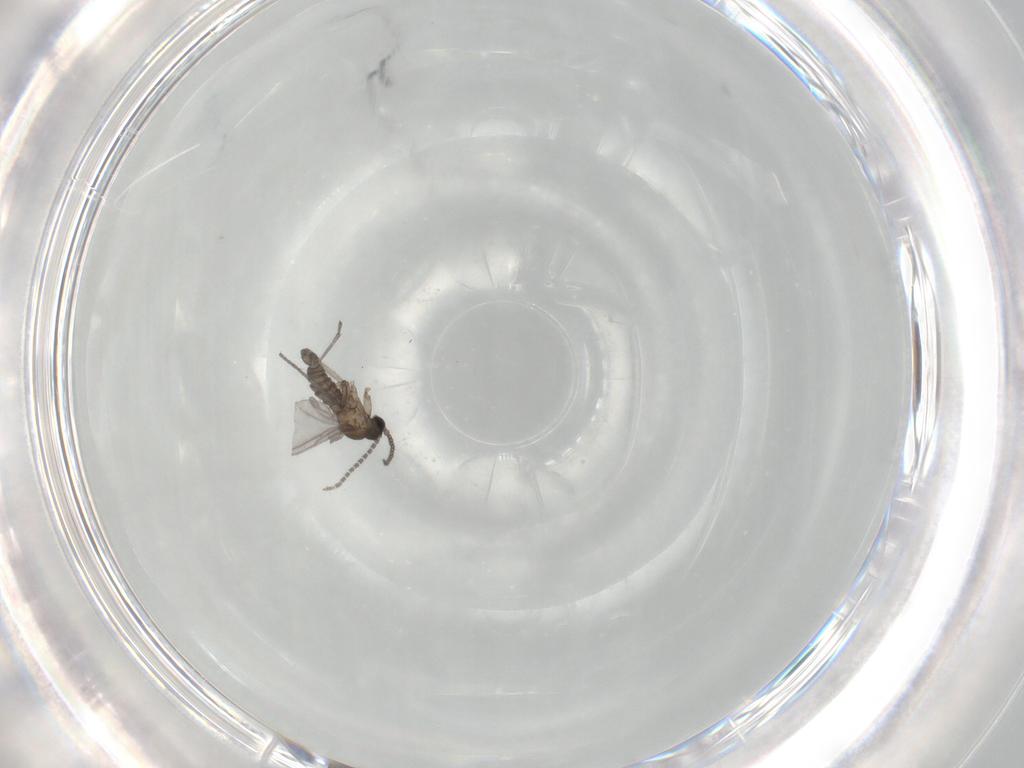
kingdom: Animalia
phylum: Arthropoda
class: Insecta
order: Diptera
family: Sciaridae
